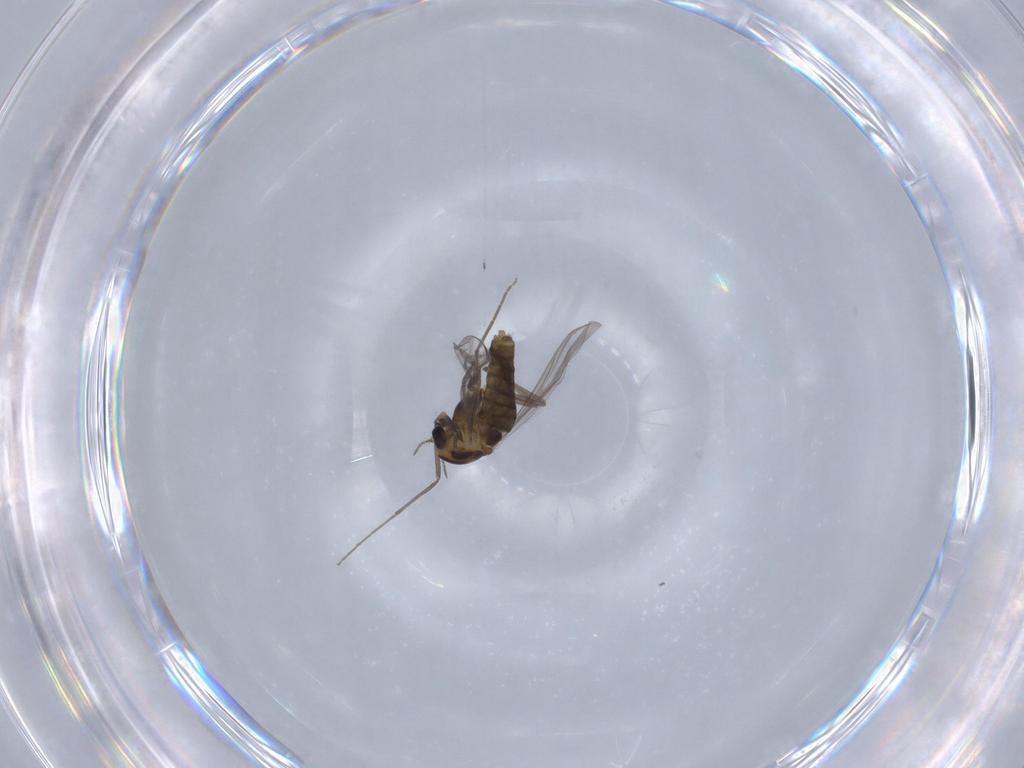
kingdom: Animalia
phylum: Arthropoda
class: Insecta
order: Diptera
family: Chironomidae
